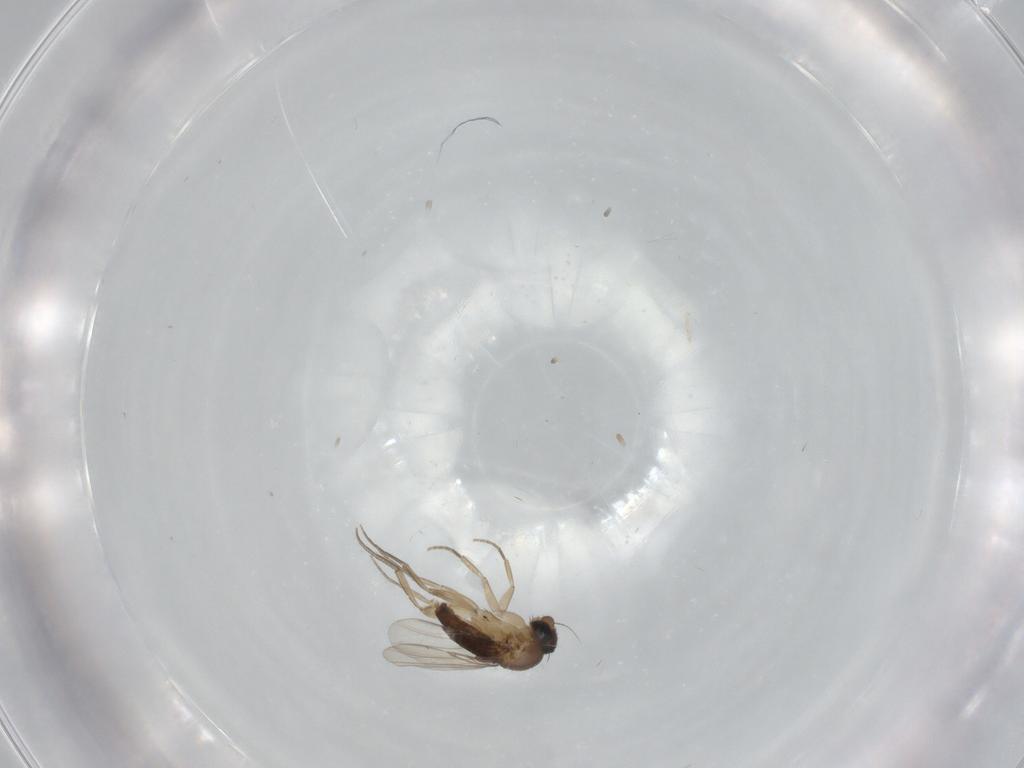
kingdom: Animalia
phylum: Arthropoda
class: Insecta
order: Diptera
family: Phoridae
